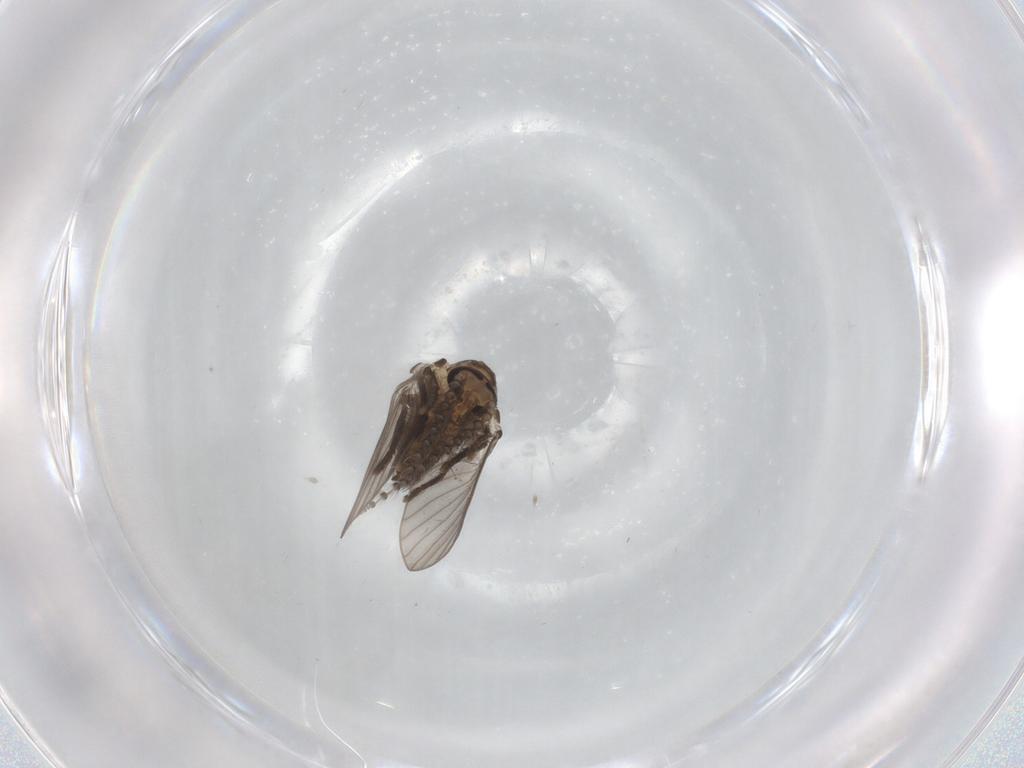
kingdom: Animalia
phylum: Arthropoda
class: Insecta
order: Diptera
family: Psychodidae
